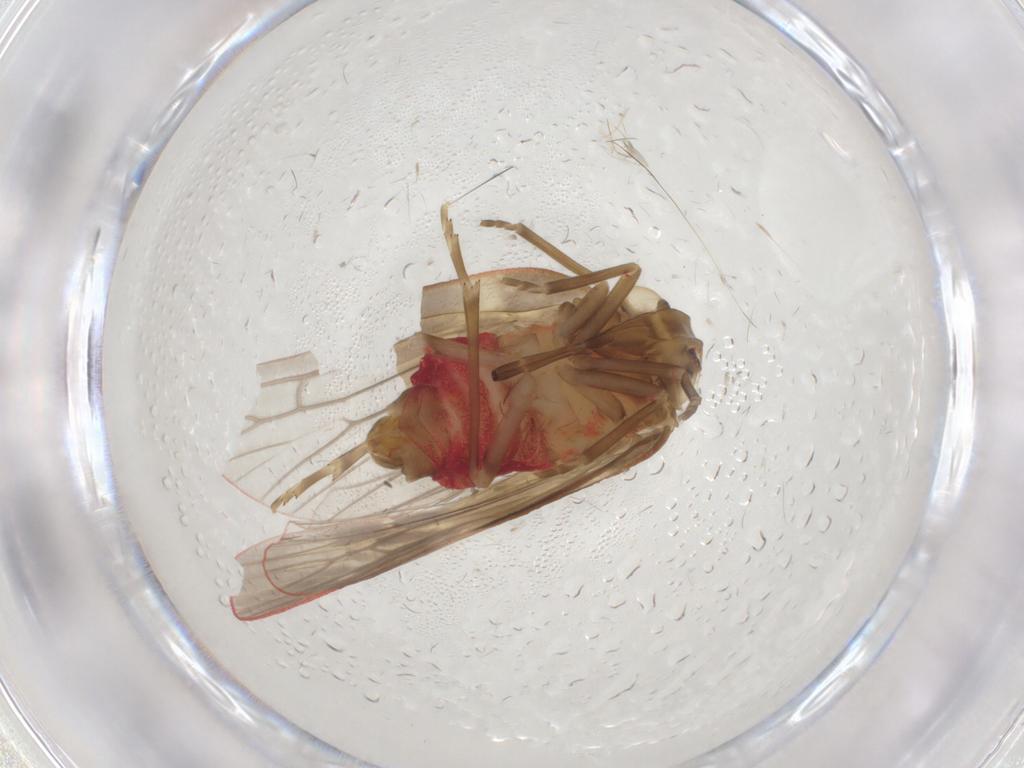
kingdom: Animalia
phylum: Arthropoda
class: Insecta
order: Hemiptera
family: Fulgoroidea_incertae_sedis
